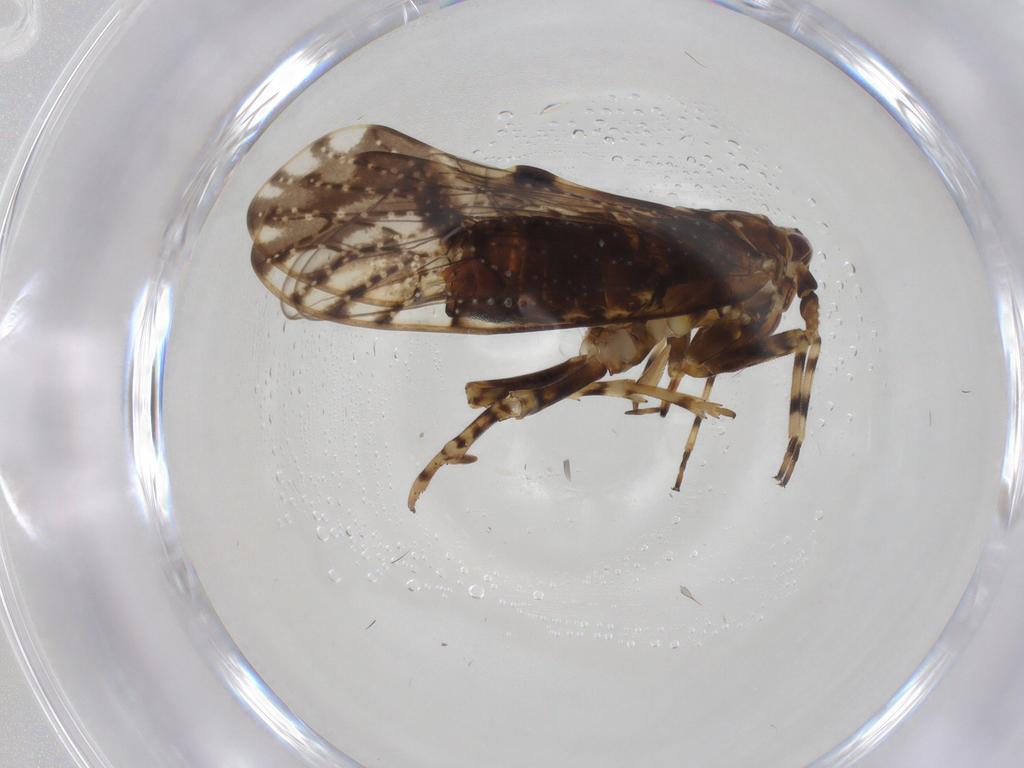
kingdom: Animalia
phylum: Arthropoda
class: Insecta
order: Hemiptera
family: Delphacidae
